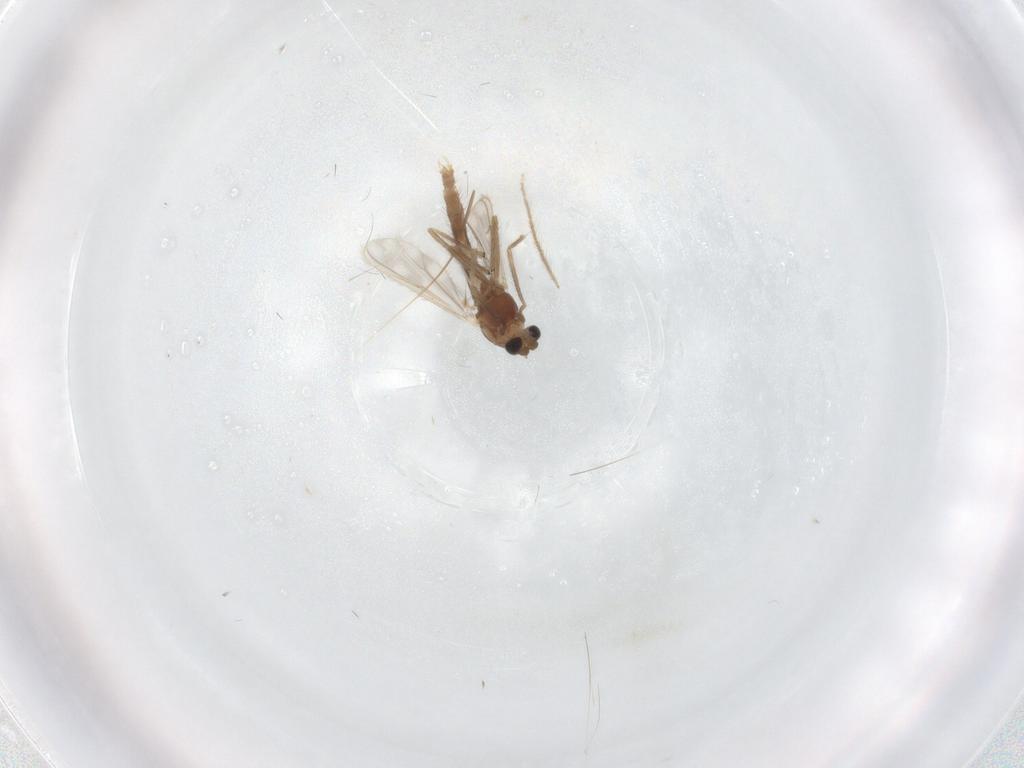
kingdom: Animalia
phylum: Arthropoda
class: Insecta
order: Diptera
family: Chironomidae
